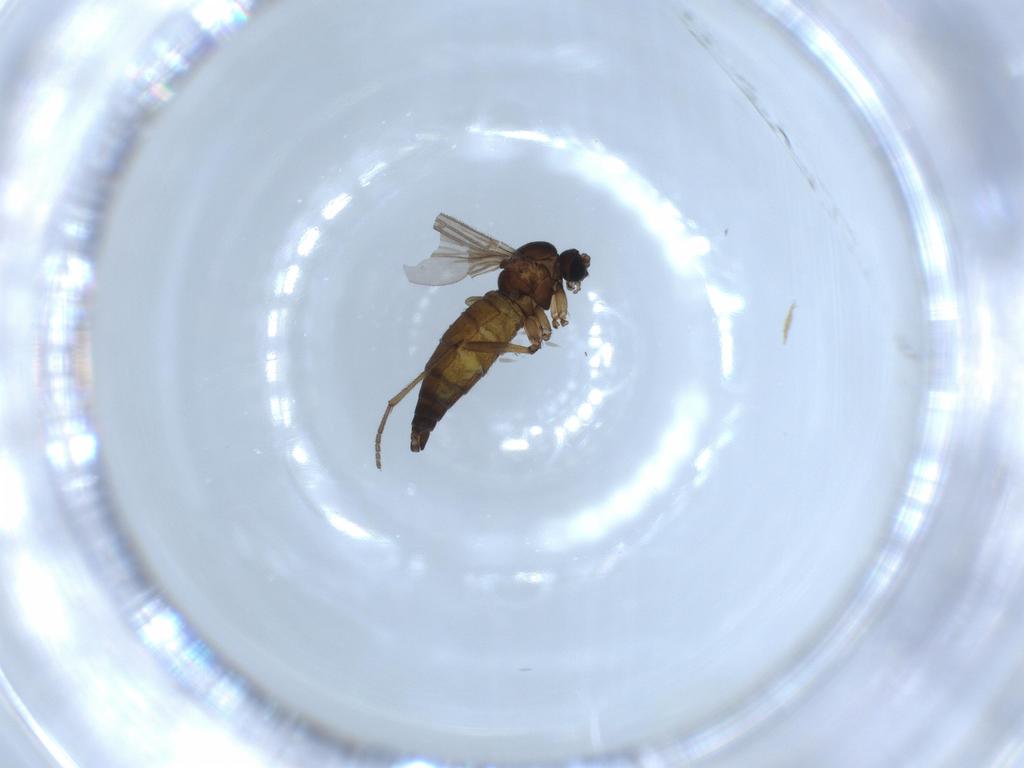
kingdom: Animalia
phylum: Arthropoda
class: Insecta
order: Diptera
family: Sciaridae
